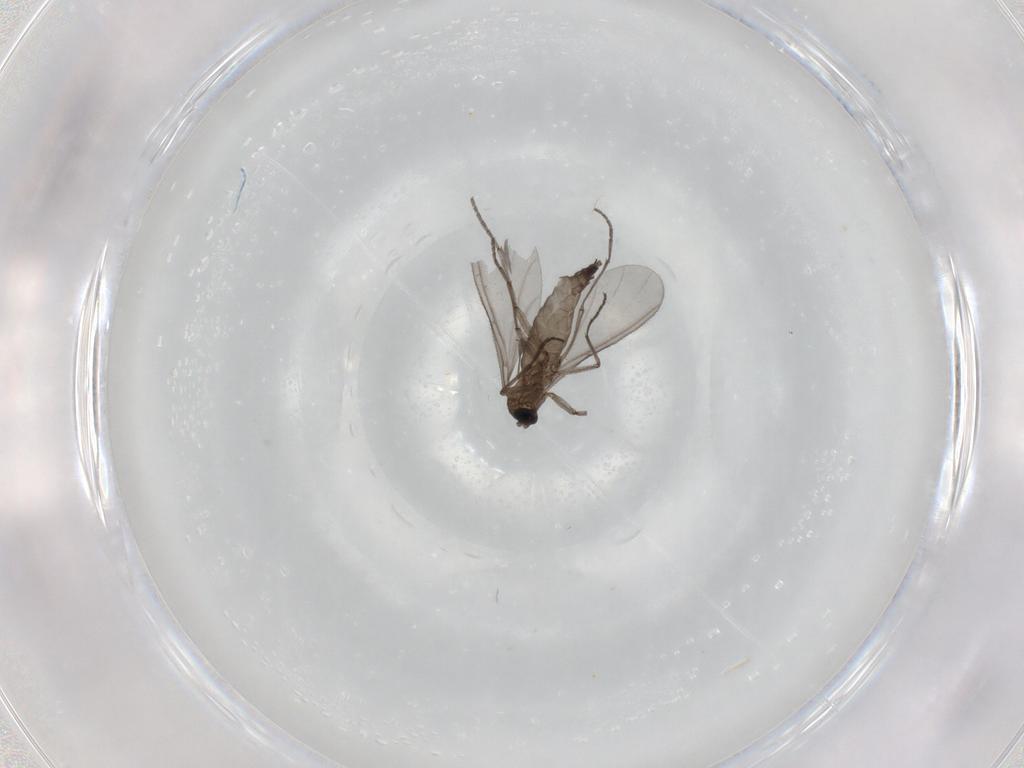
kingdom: Animalia
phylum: Arthropoda
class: Insecta
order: Diptera
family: Sciaridae
